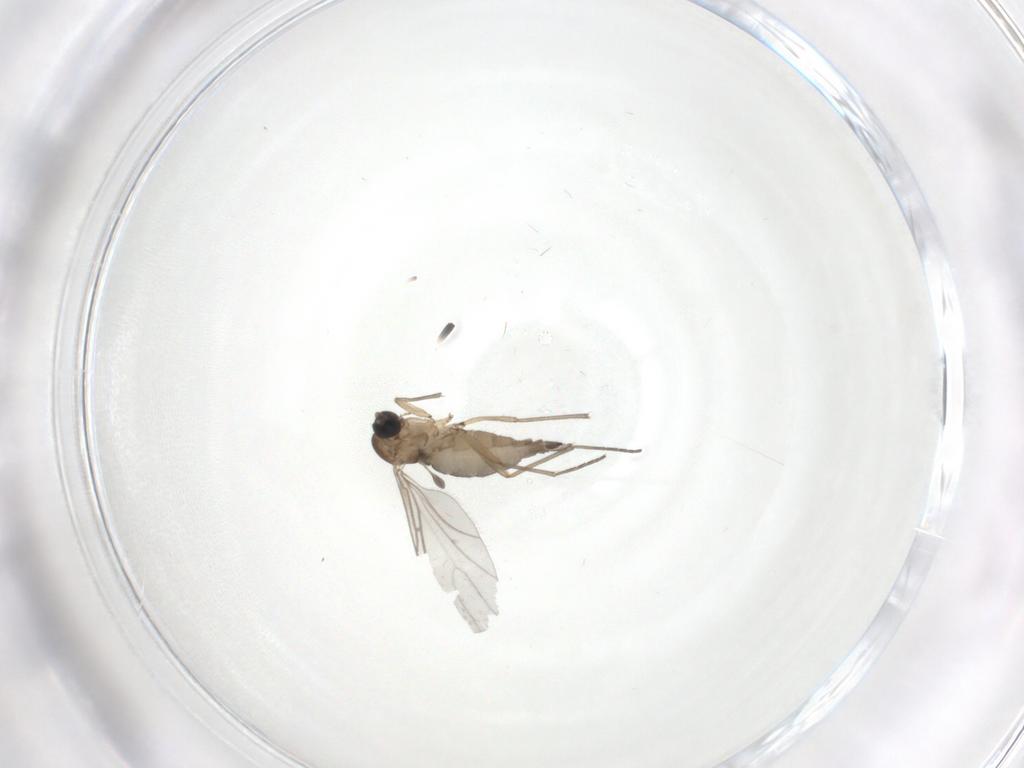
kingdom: Animalia
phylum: Arthropoda
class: Insecta
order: Diptera
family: Sciaridae
